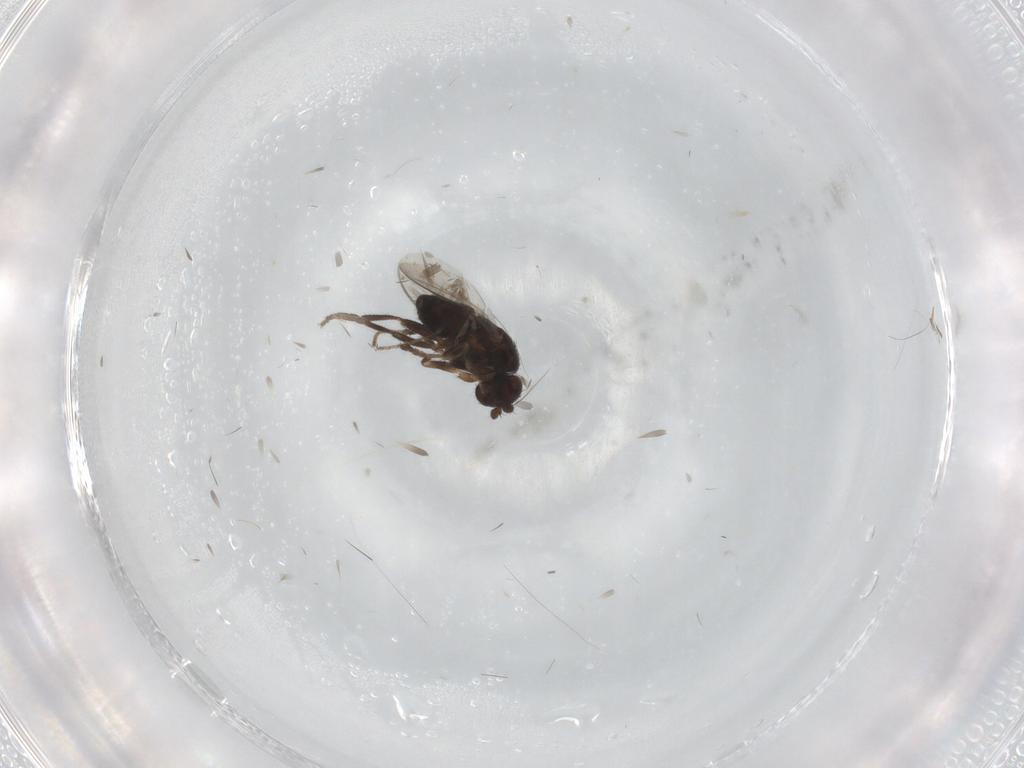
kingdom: Animalia
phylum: Arthropoda
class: Insecta
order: Diptera
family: Sphaeroceridae
